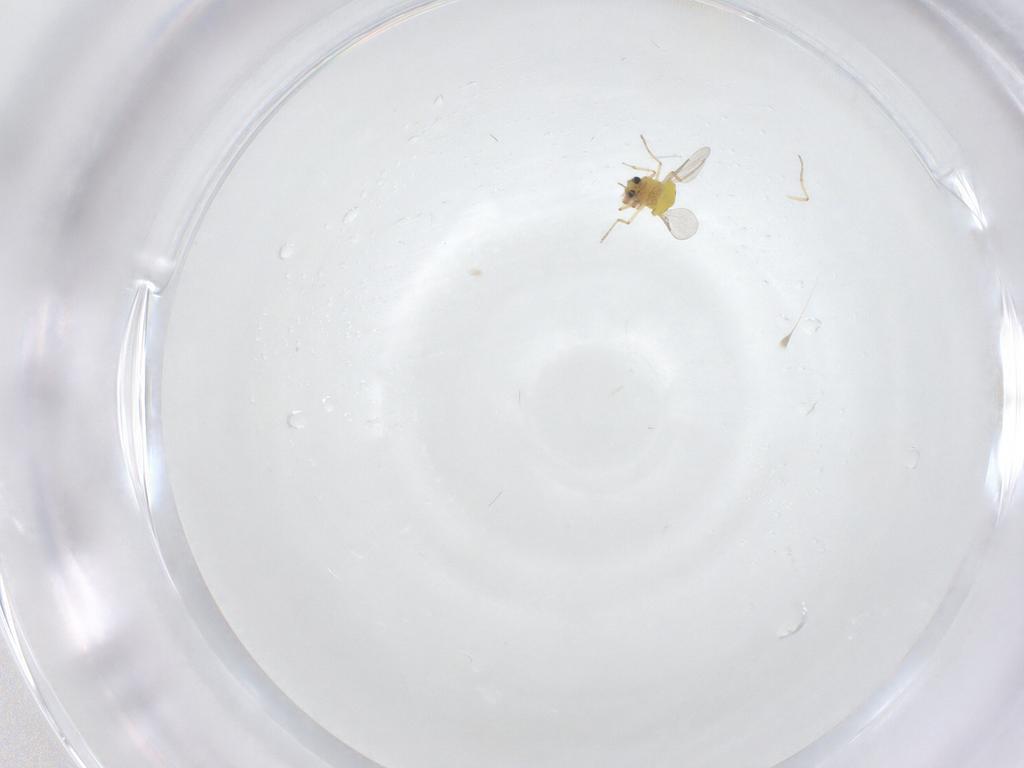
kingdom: Animalia
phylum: Arthropoda
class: Insecta
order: Diptera
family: Ceratopogonidae
